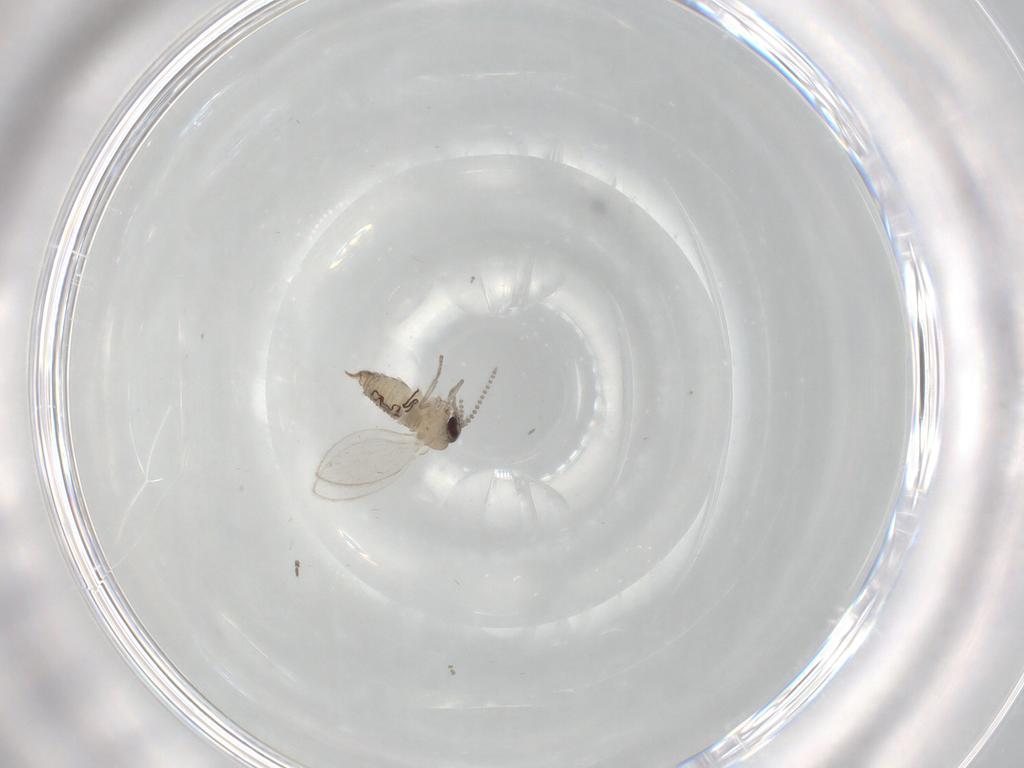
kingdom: Animalia
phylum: Arthropoda
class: Insecta
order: Diptera
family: Psychodidae
